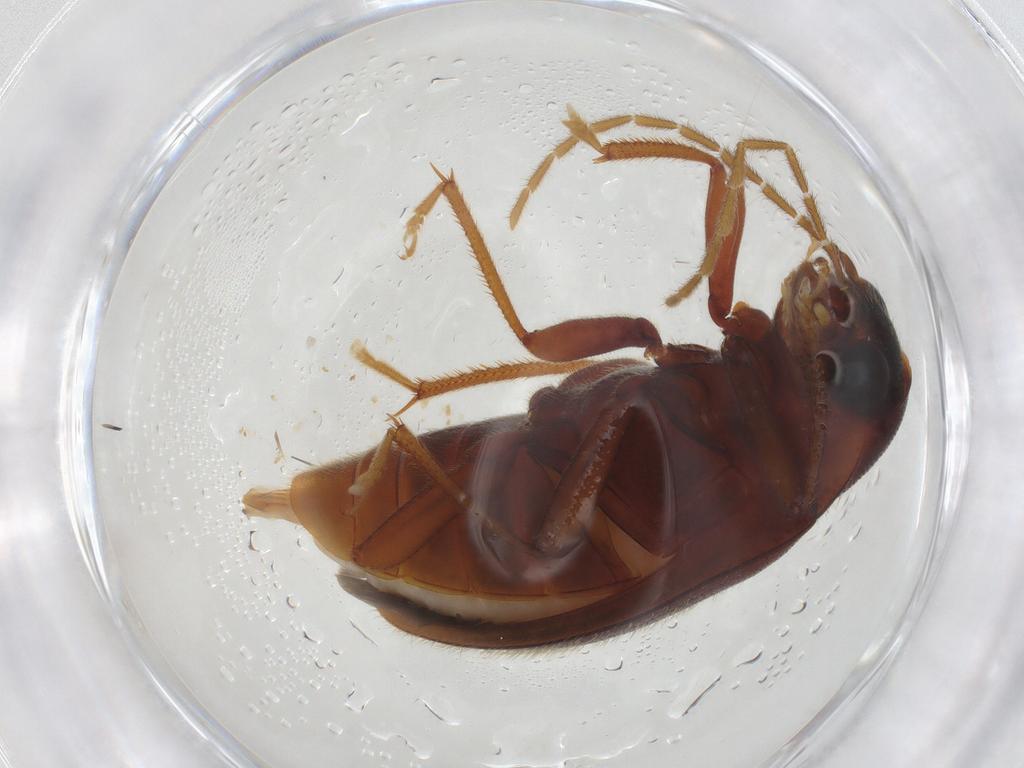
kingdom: Animalia
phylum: Arthropoda
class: Insecta
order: Coleoptera
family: Ptilodactylidae
